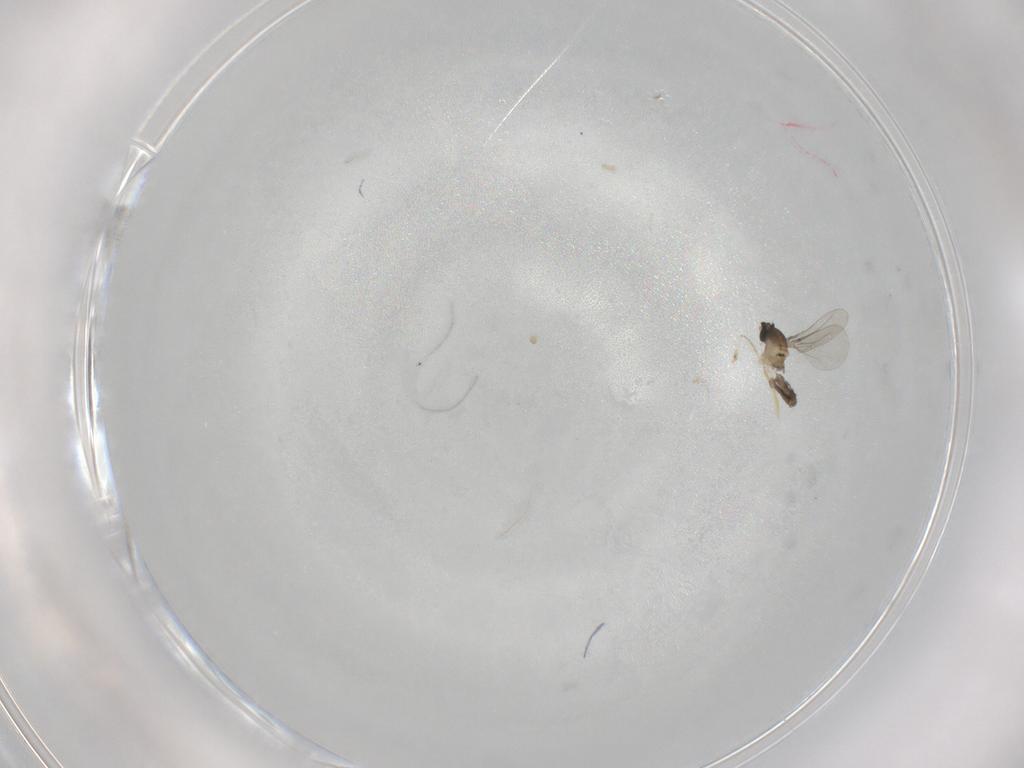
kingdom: Animalia
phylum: Arthropoda
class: Insecta
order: Diptera
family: Cecidomyiidae
